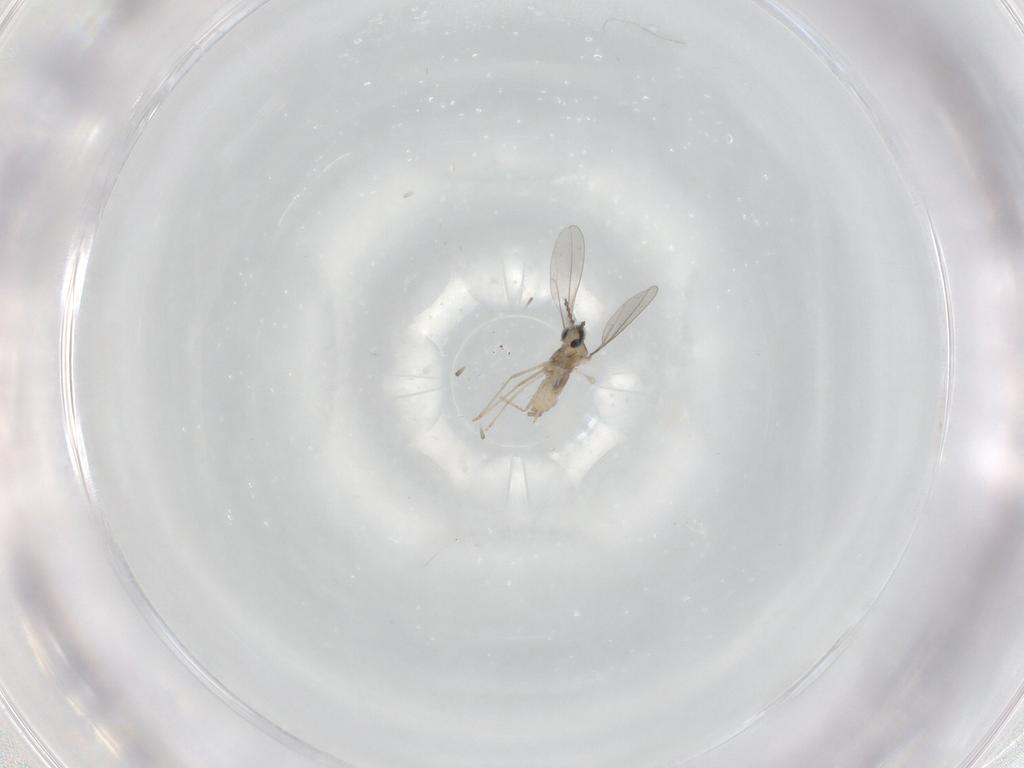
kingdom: Animalia
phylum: Arthropoda
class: Insecta
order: Diptera
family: Cecidomyiidae
